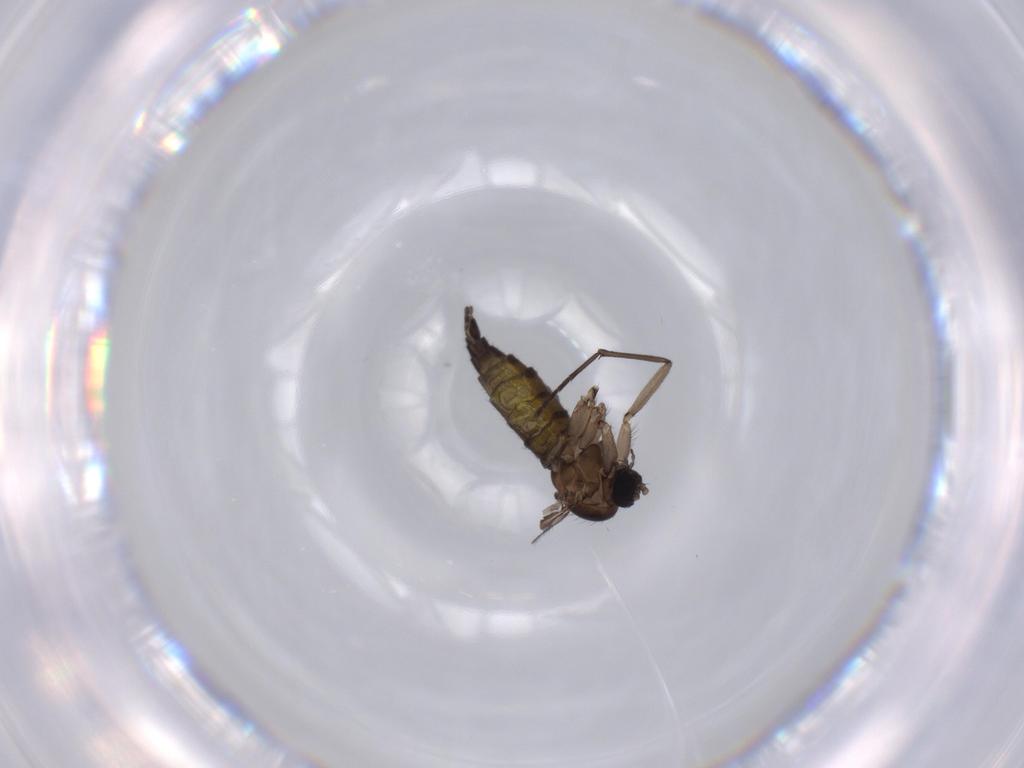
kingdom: Animalia
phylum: Arthropoda
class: Insecta
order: Diptera
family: Sciaridae
